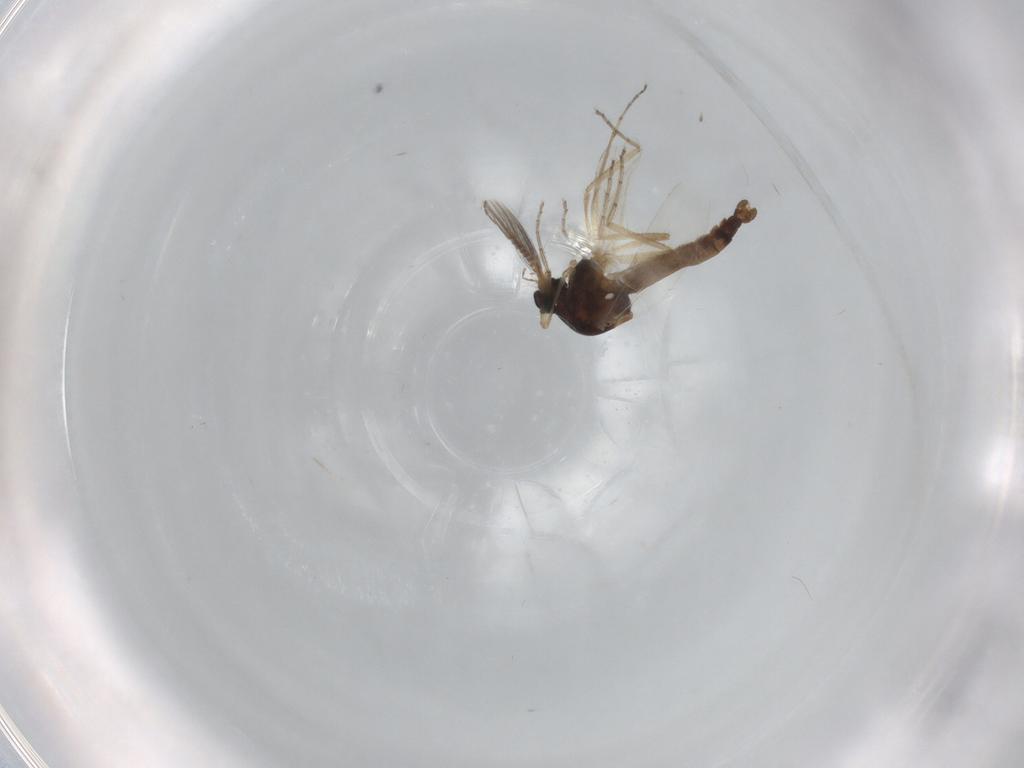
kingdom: Animalia
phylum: Arthropoda
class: Insecta
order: Diptera
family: Ceratopogonidae
